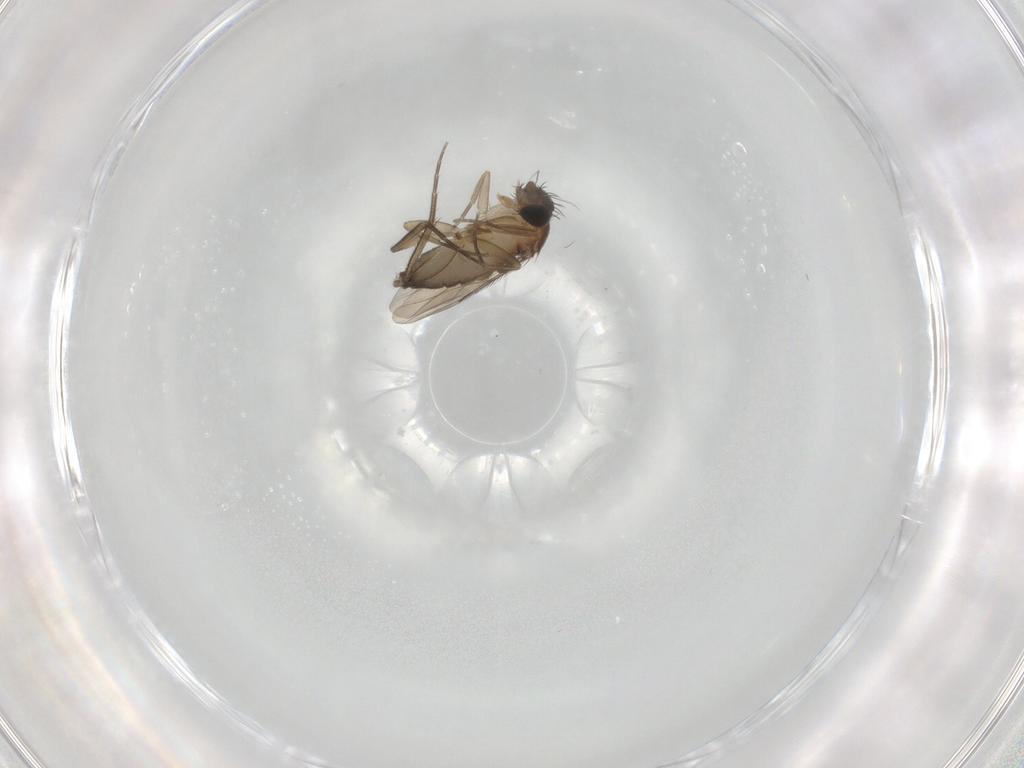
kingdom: Animalia
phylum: Arthropoda
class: Insecta
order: Diptera
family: Phoridae
